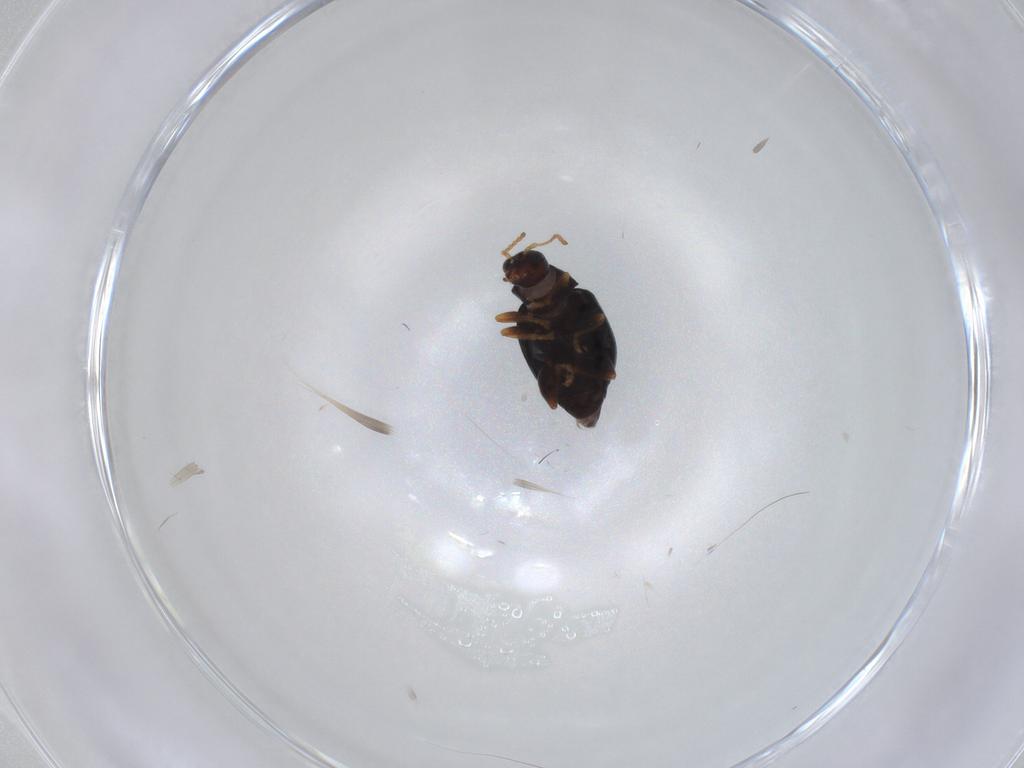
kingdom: Animalia
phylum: Arthropoda
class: Insecta
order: Coleoptera
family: Chrysomelidae
